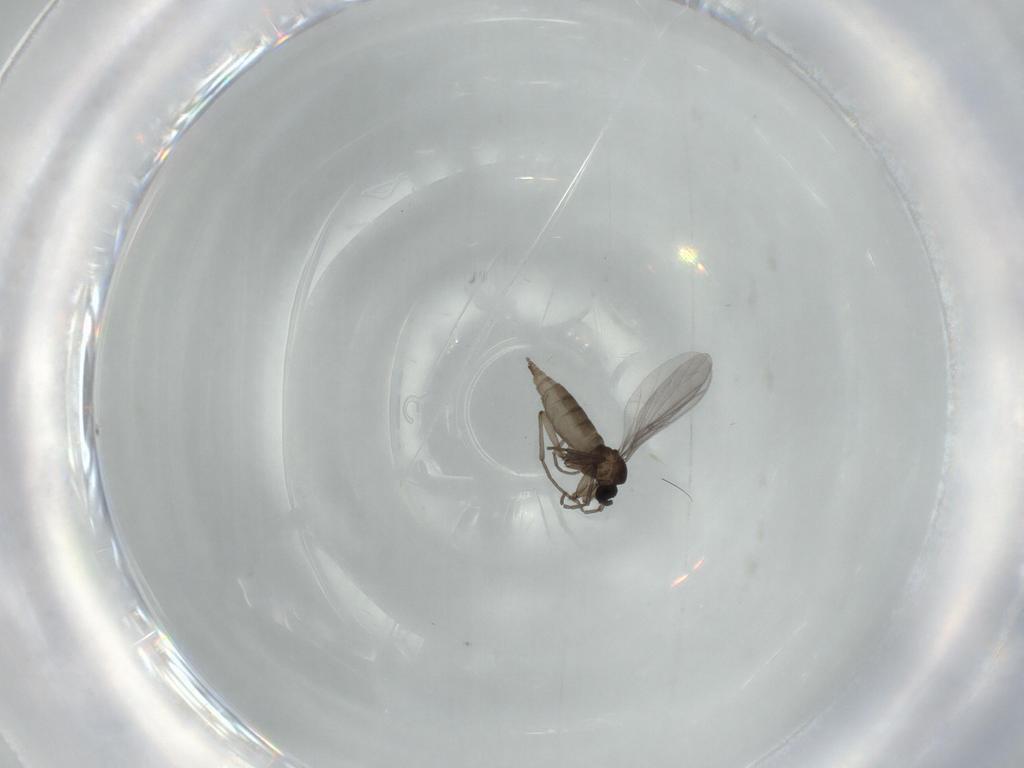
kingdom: Animalia
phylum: Arthropoda
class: Insecta
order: Diptera
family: Sciaridae
